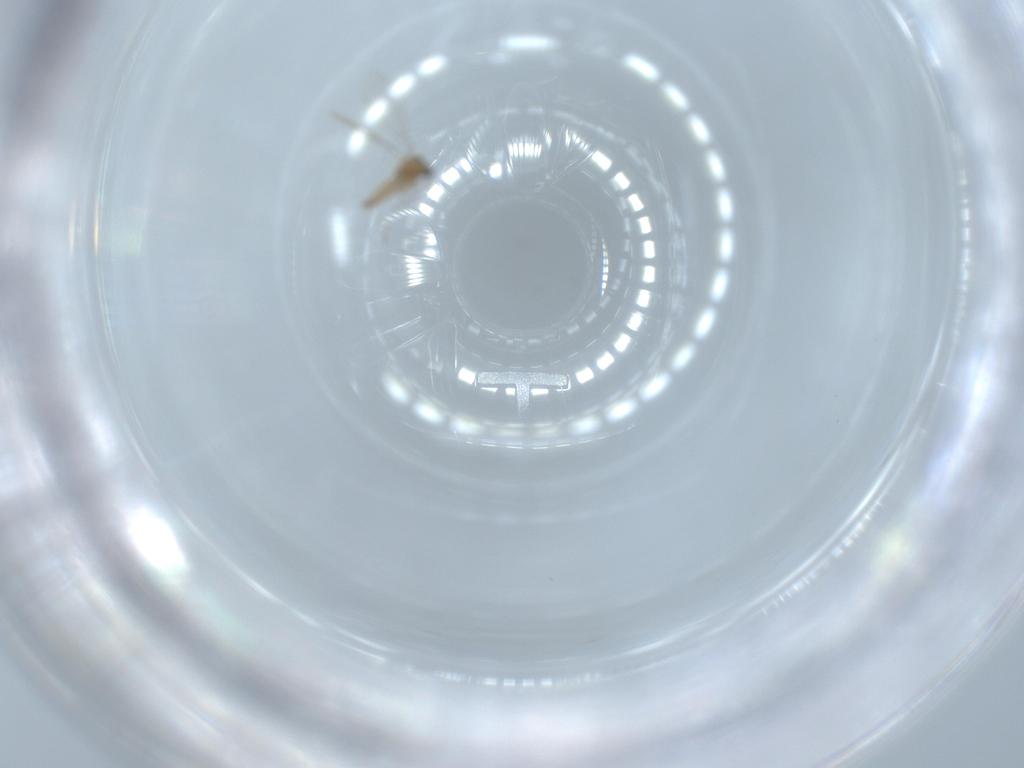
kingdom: Animalia
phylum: Arthropoda
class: Insecta
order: Diptera
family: Cecidomyiidae
